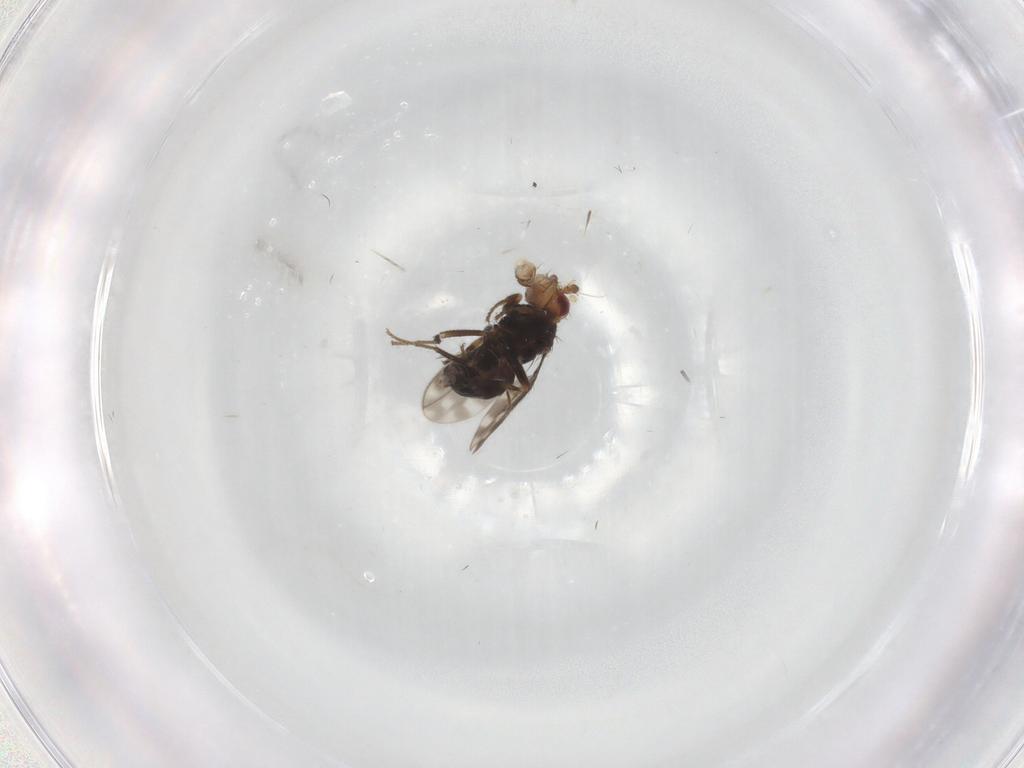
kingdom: Animalia
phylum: Arthropoda
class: Insecta
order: Diptera
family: Phoridae
